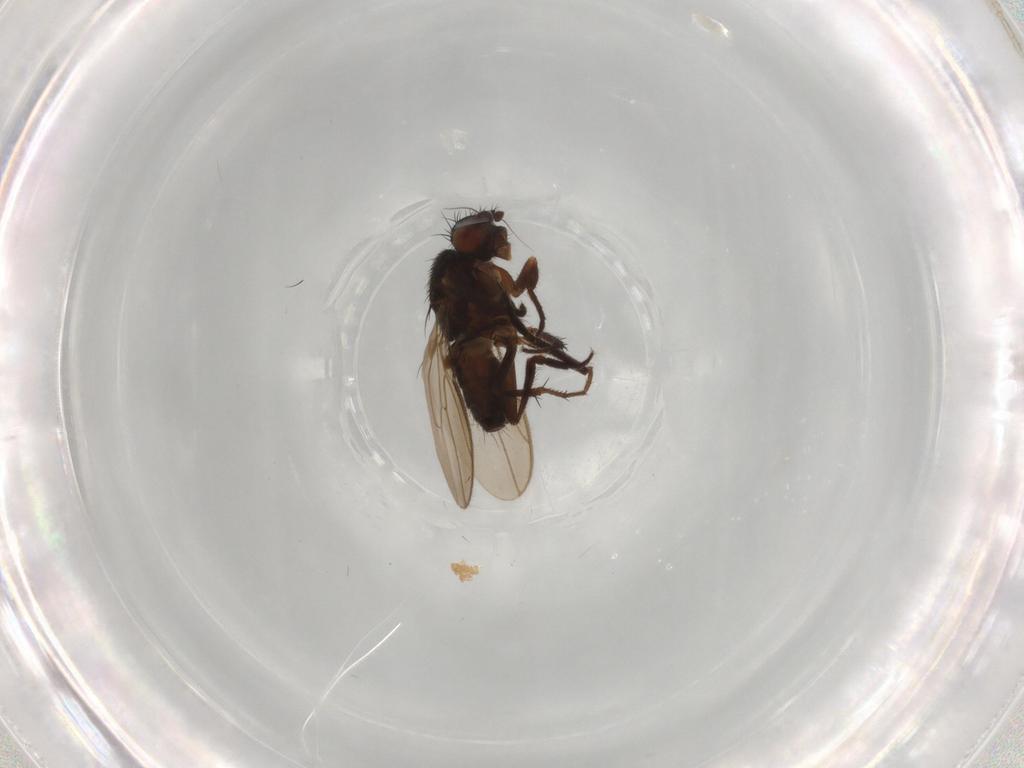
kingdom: Animalia
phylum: Arthropoda
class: Insecta
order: Diptera
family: Sphaeroceridae
